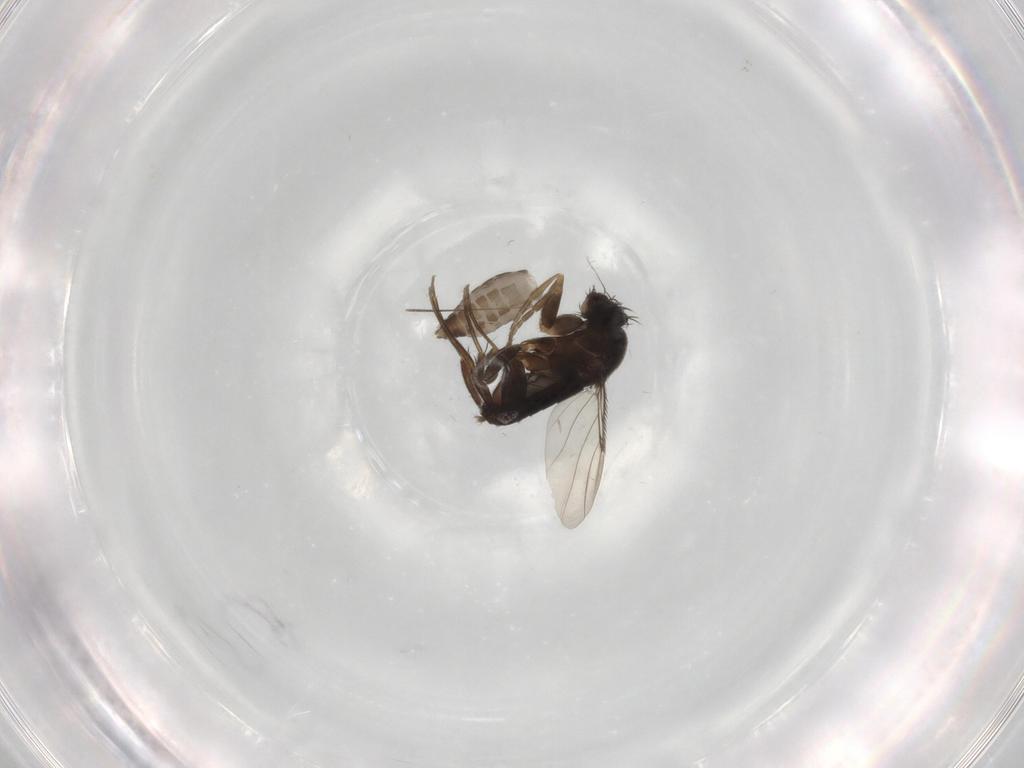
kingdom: Animalia
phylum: Arthropoda
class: Insecta
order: Diptera
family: Ceratopogonidae
